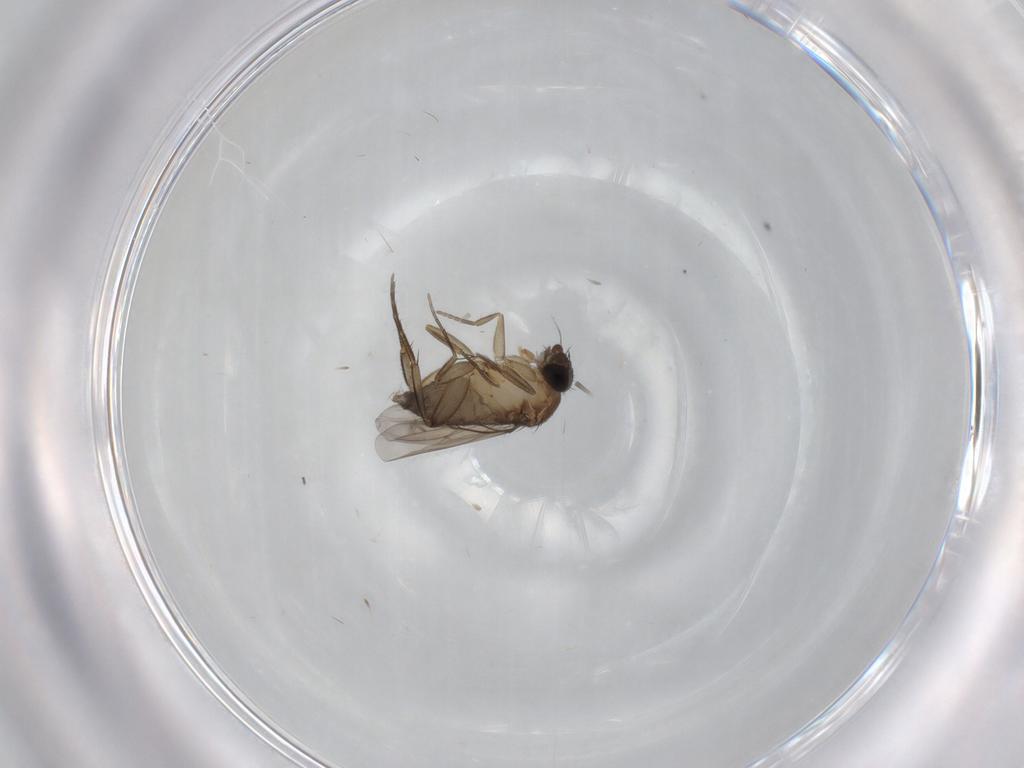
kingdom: Animalia
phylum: Arthropoda
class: Insecta
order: Diptera
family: Phoridae
